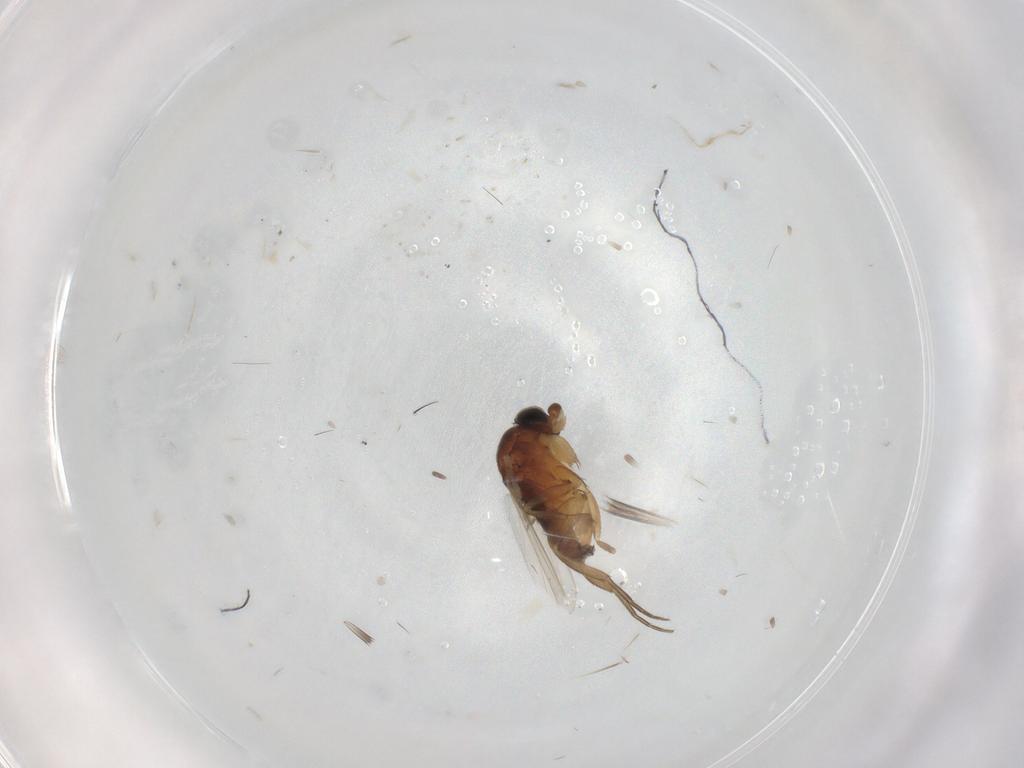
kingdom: Animalia
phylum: Arthropoda
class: Insecta
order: Diptera
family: Phoridae
